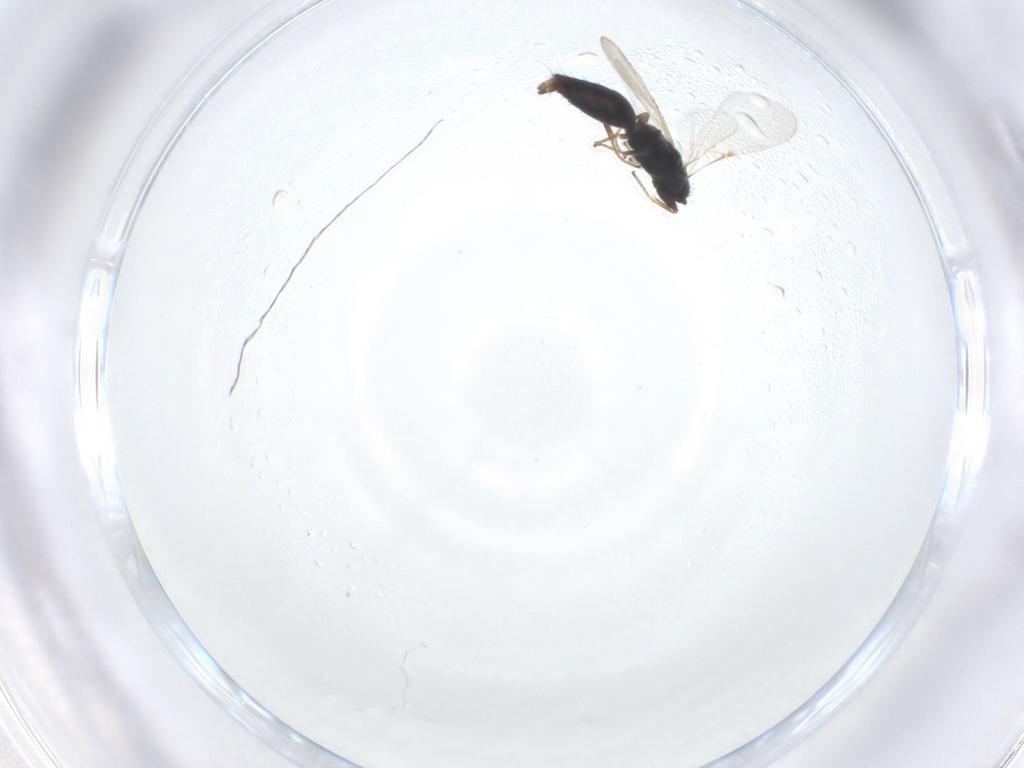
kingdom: Animalia
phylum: Arthropoda
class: Insecta
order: Hymenoptera
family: Bethylidae
